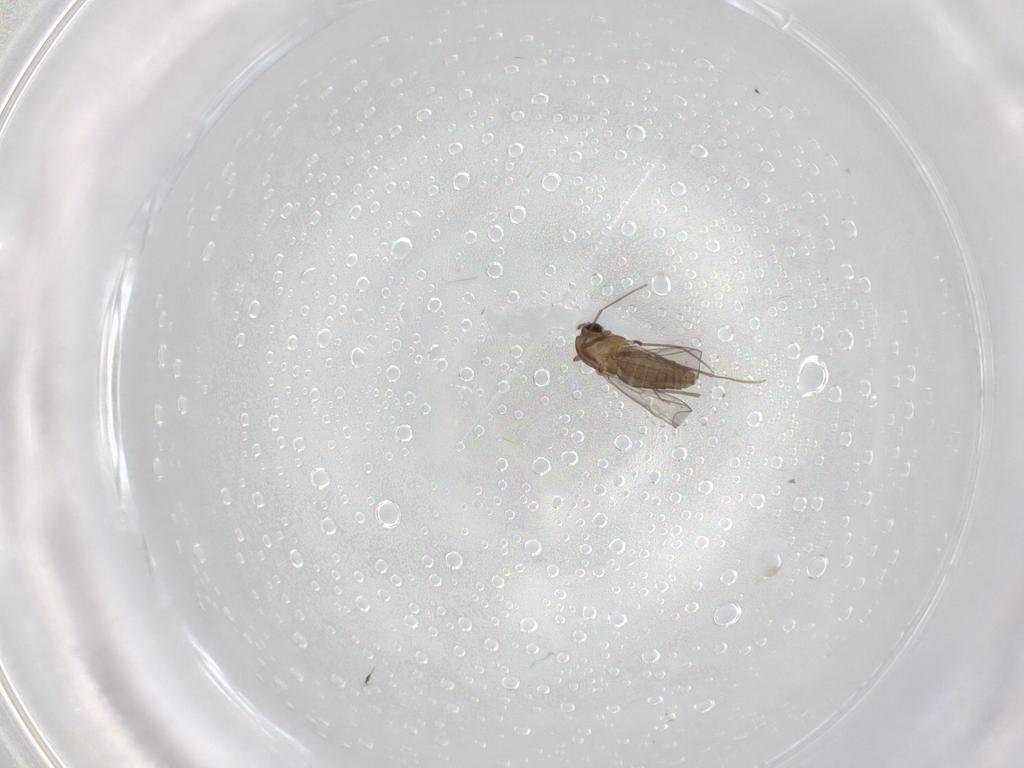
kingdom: Animalia
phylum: Arthropoda
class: Insecta
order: Diptera
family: Chironomidae
